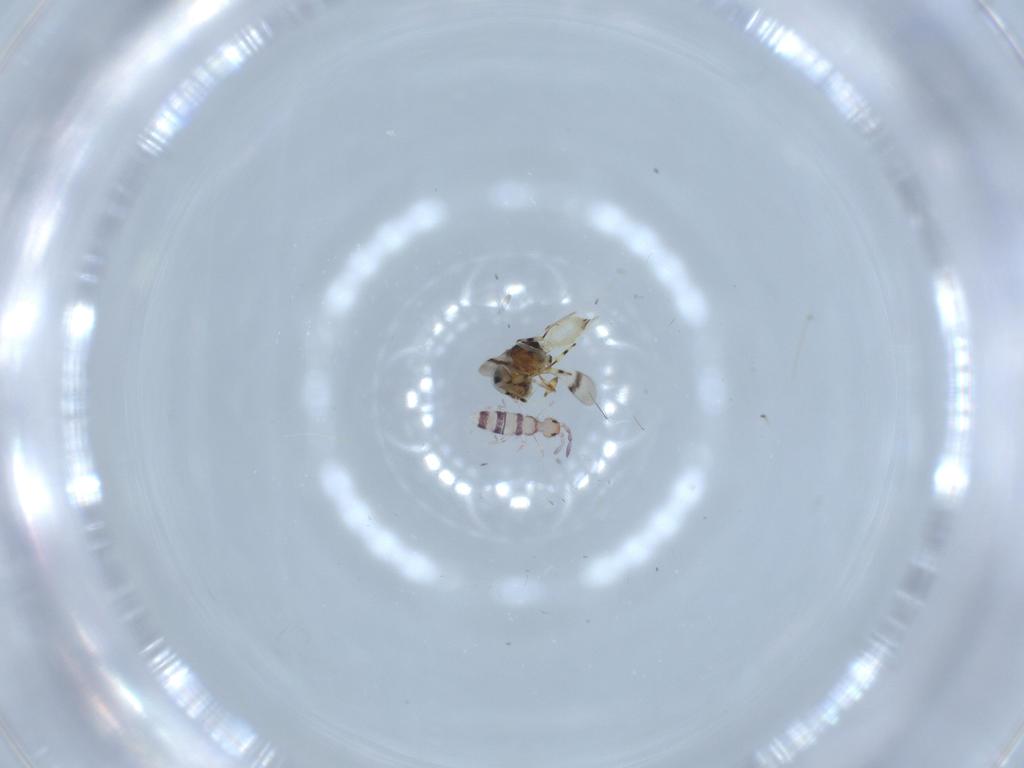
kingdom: Animalia
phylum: Arthropoda
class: Collembola
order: Entomobryomorpha
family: Entomobryidae
